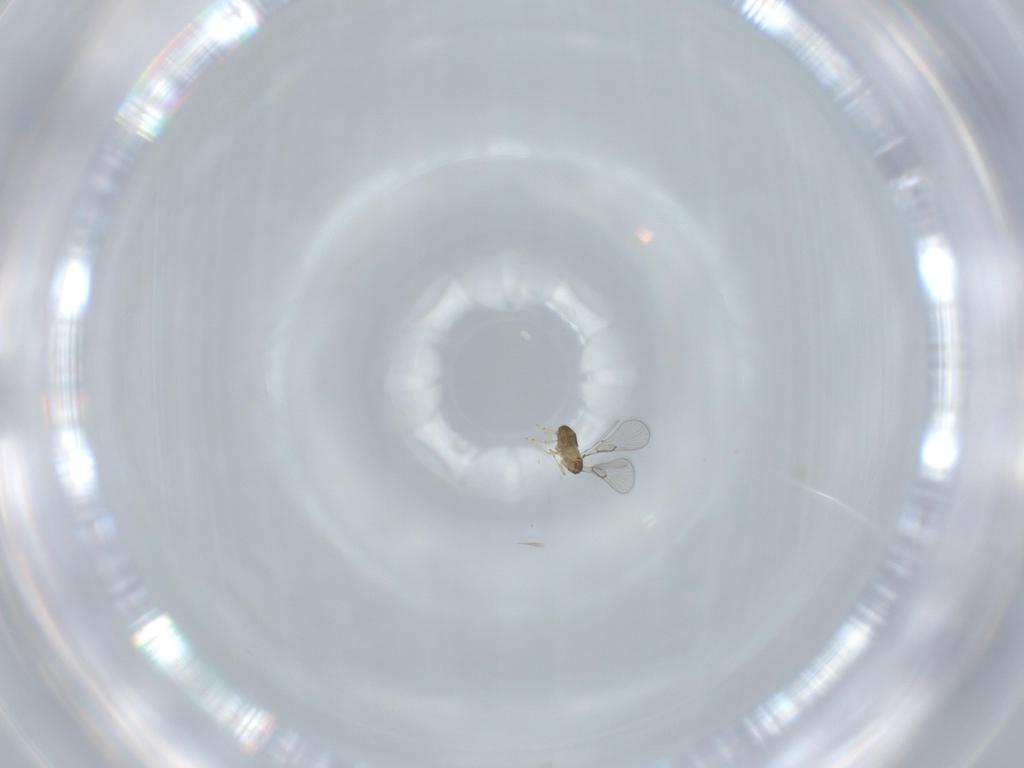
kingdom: Animalia
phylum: Arthropoda
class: Insecta
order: Hymenoptera
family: Trichogrammatidae
